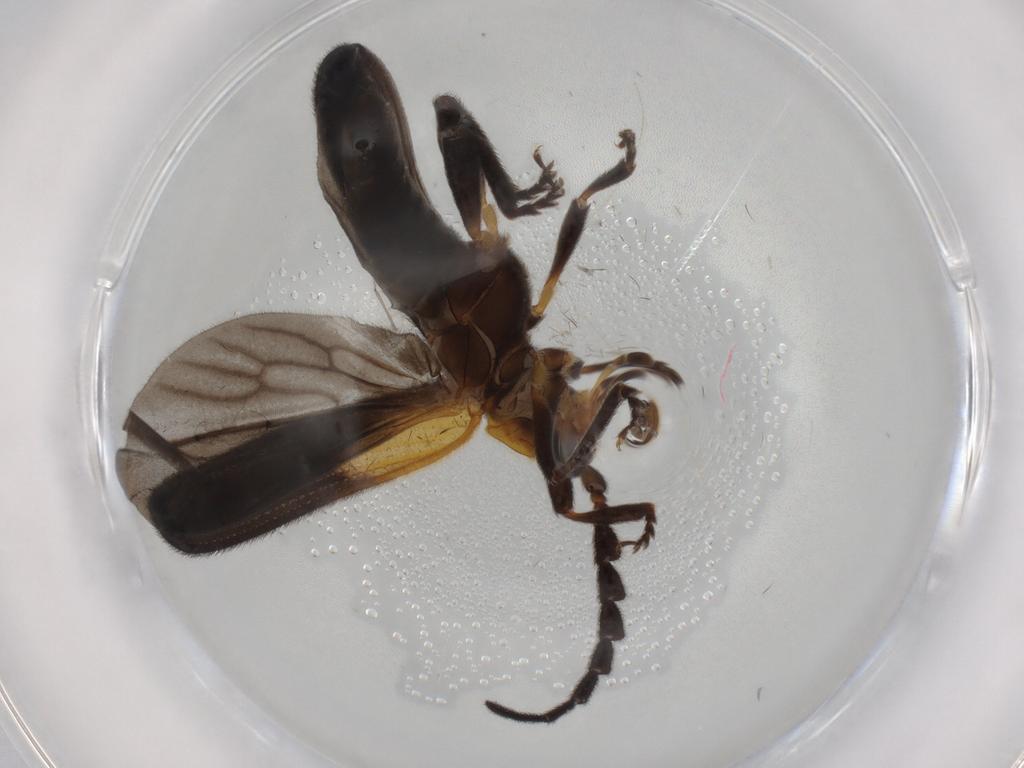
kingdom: Animalia
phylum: Arthropoda
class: Insecta
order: Coleoptera
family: Lycidae
